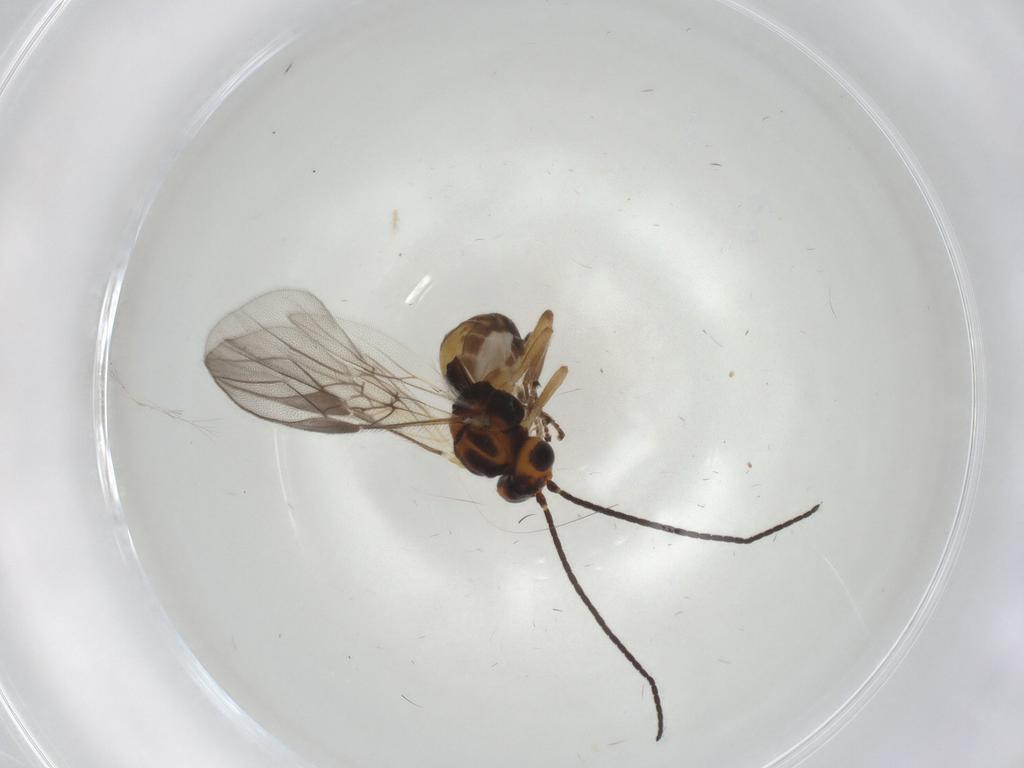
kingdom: Animalia
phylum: Arthropoda
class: Insecta
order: Hymenoptera
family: Braconidae
